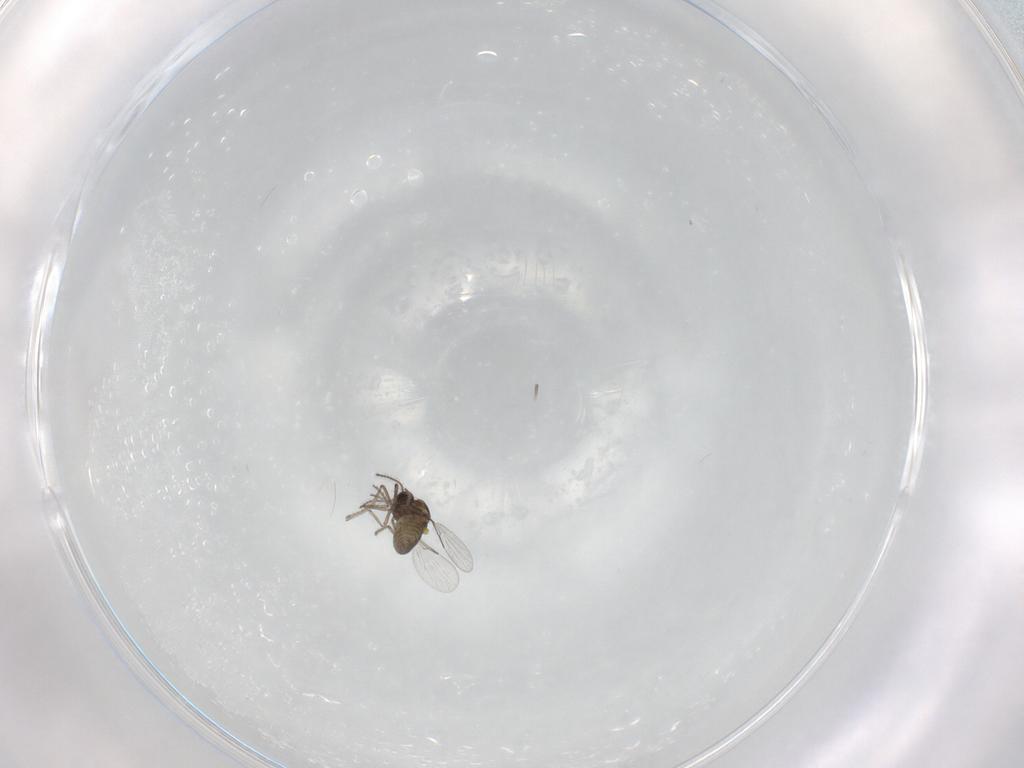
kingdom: Animalia
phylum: Arthropoda
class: Insecta
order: Diptera
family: Ceratopogonidae
